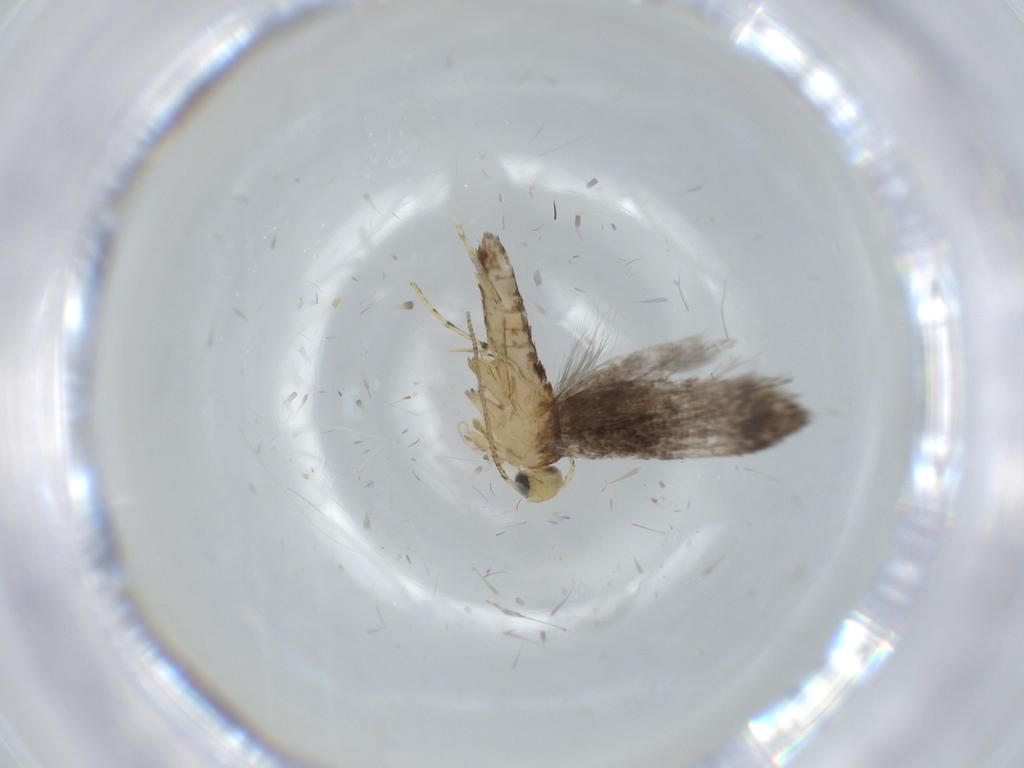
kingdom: Animalia
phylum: Arthropoda
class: Insecta
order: Lepidoptera
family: Argyresthiidae
